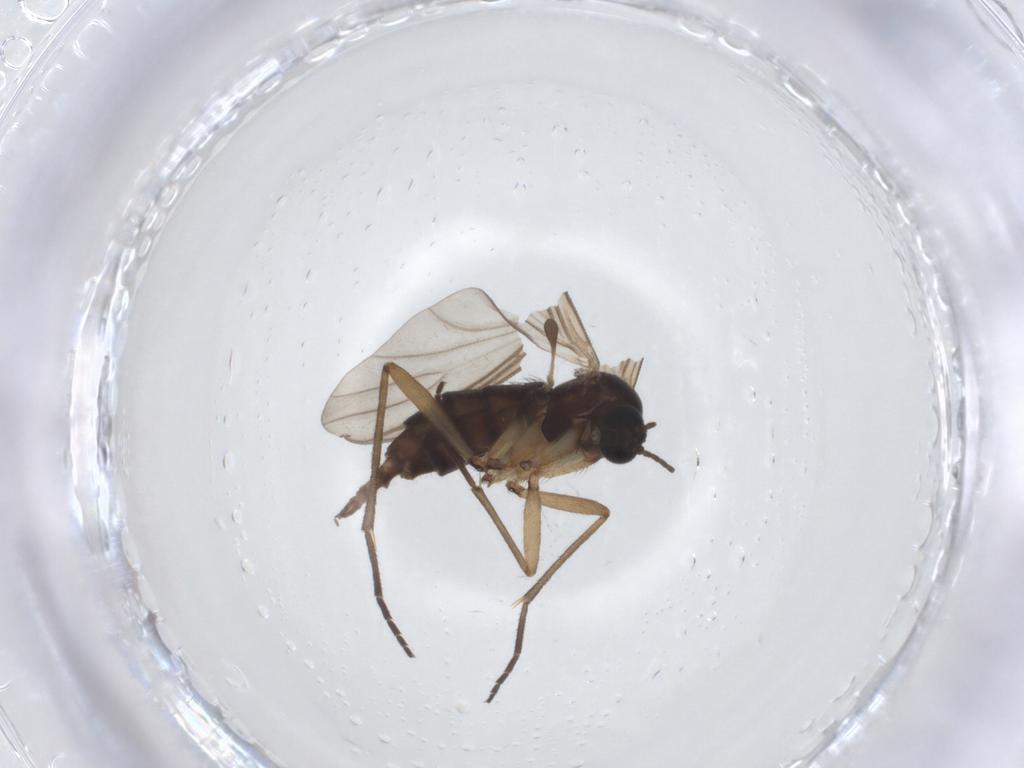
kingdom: Animalia
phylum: Arthropoda
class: Insecta
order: Diptera
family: Sciaridae
